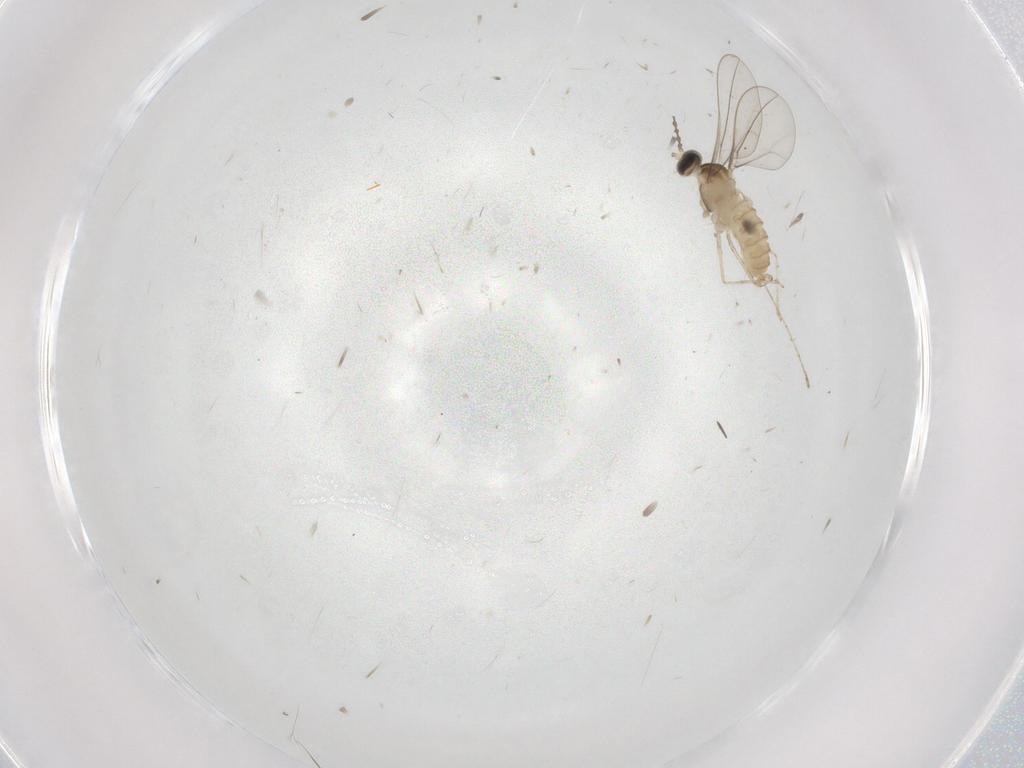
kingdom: Animalia
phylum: Arthropoda
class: Insecta
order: Diptera
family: Cecidomyiidae
